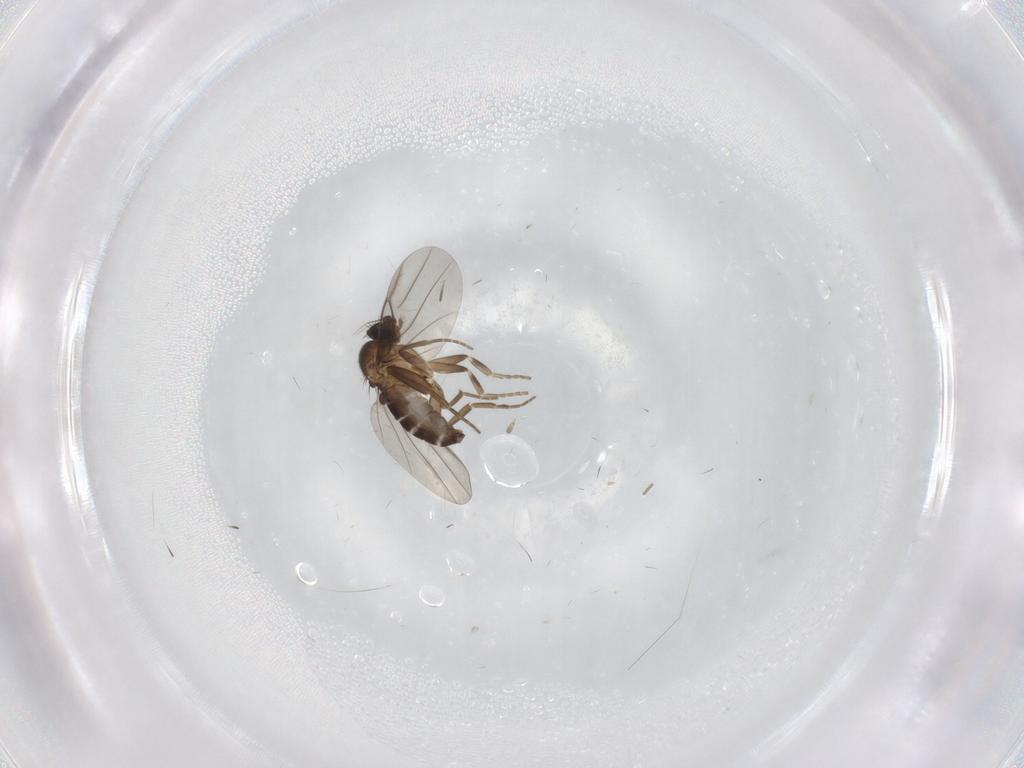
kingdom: Animalia
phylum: Arthropoda
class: Insecta
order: Diptera
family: Cecidomyiidae
